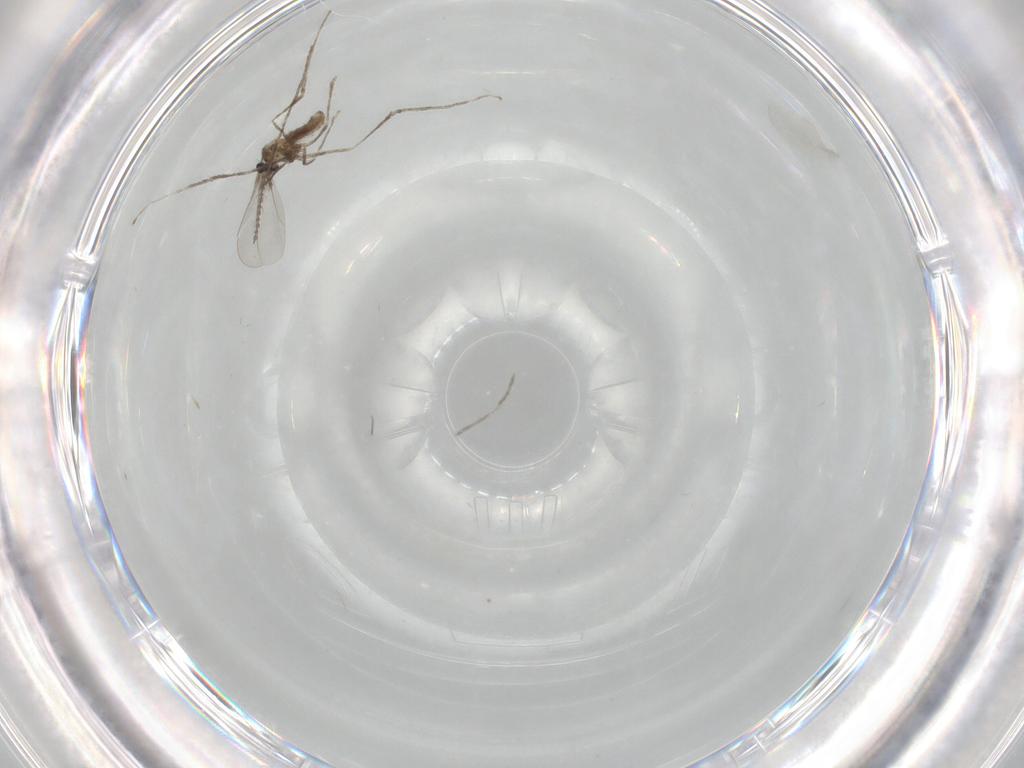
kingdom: Animalia
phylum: Arthropoda
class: Insecta
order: Diptera
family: Cecidomyiidae
